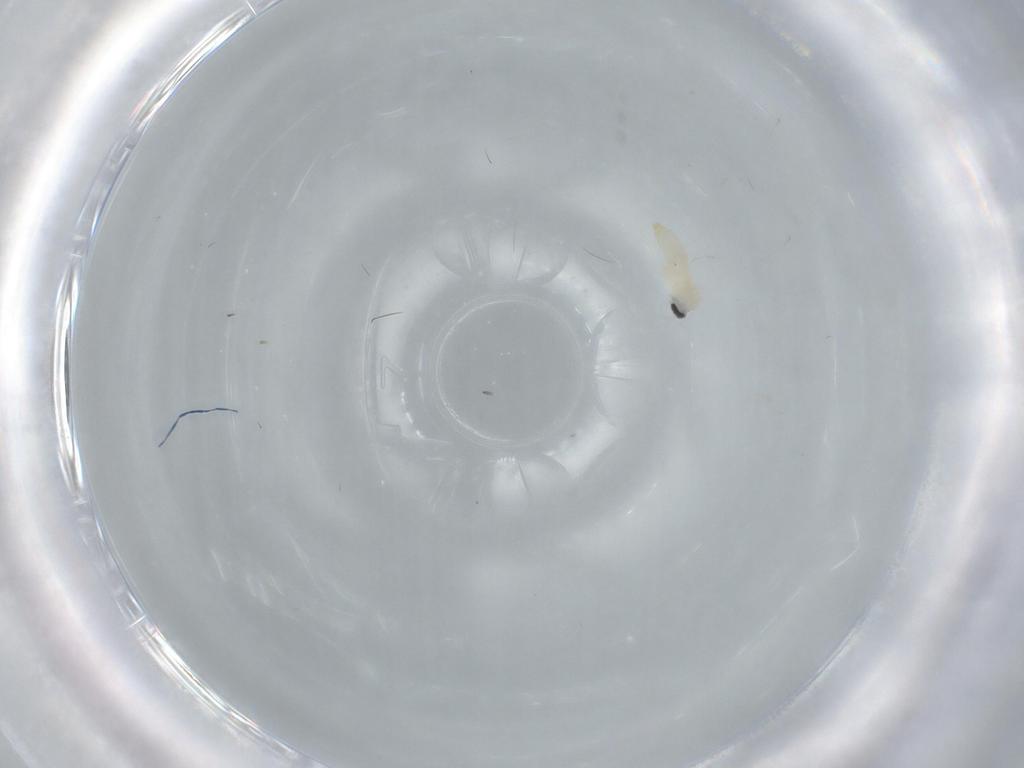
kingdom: Animalia
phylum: Arthropoda
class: Insecta
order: Diptera
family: Cecidomyiidae
